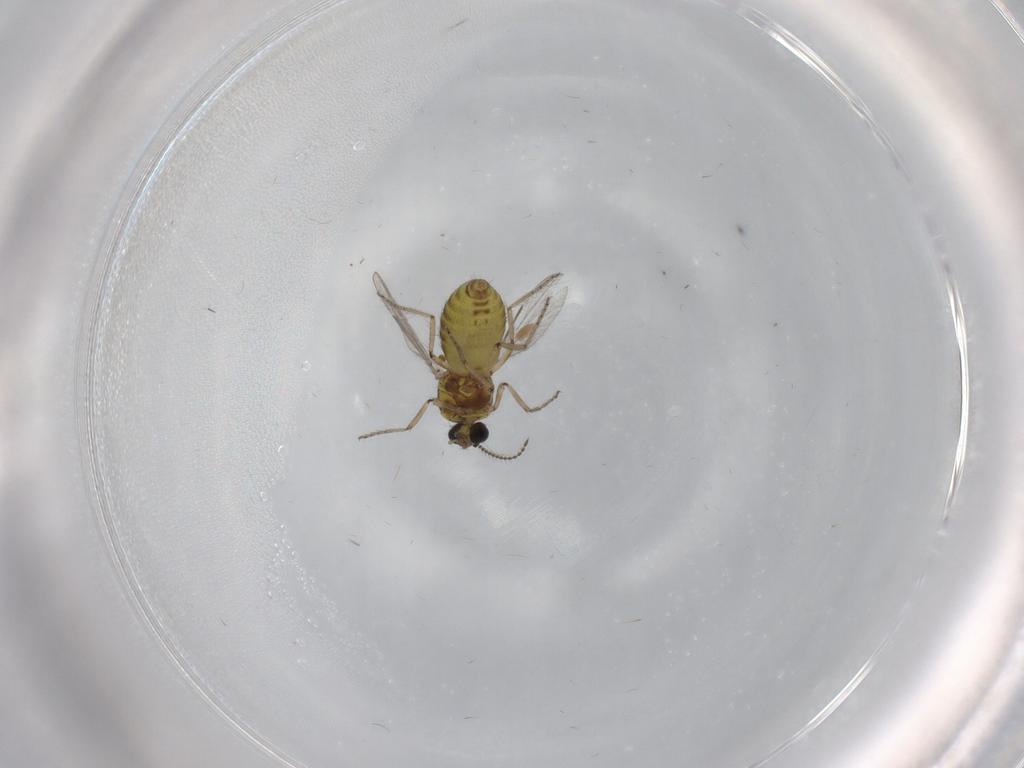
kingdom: Animalia
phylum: Arthropoda
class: Insecta
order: Diptera
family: Ceratopogonidae
